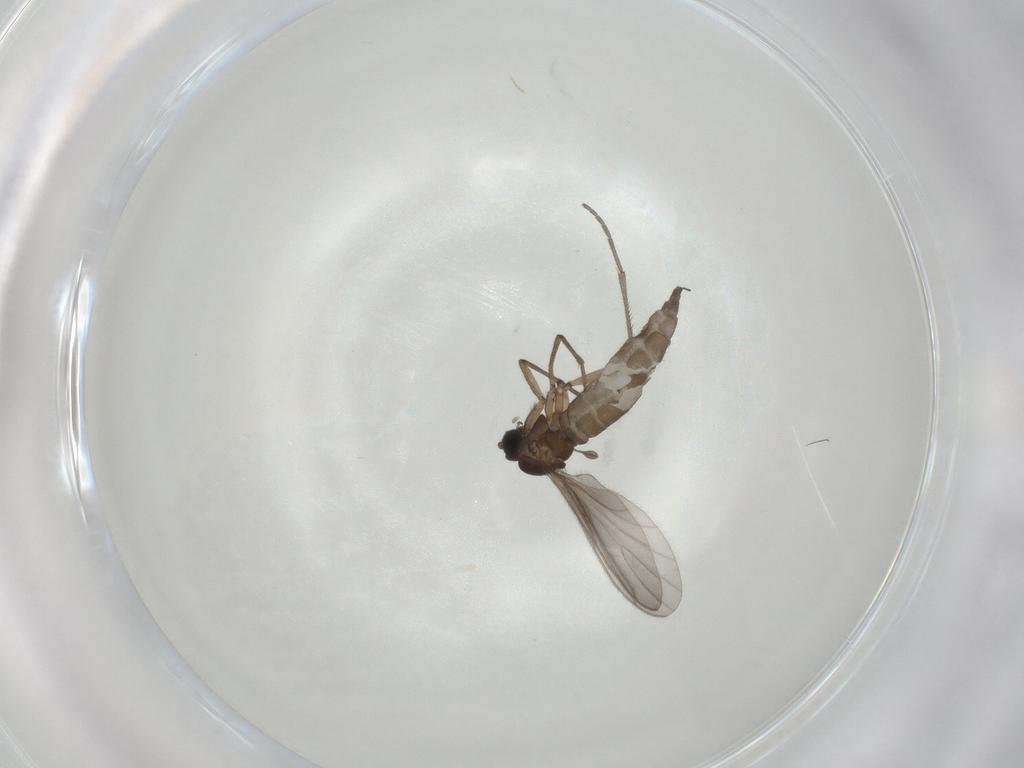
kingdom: Animalia
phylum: Arthropoda
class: Insecta
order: Diptera
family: Sciaridae
